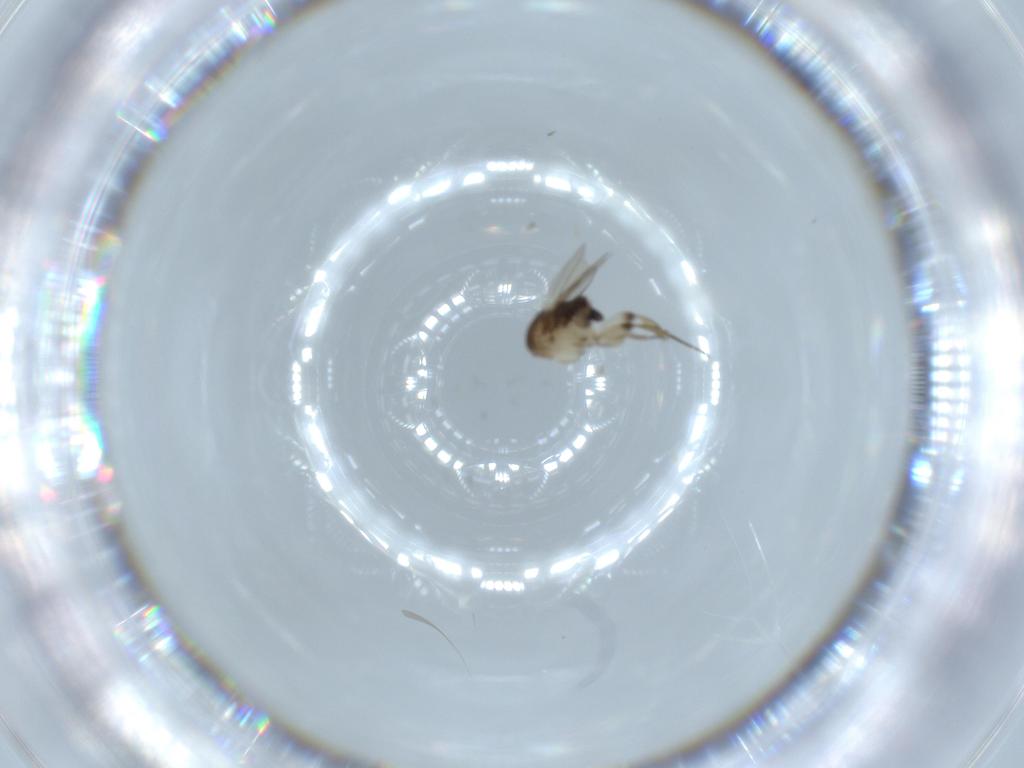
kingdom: Animalia
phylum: Arthropoda
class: Insecta
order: Diptera
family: Phoridae
